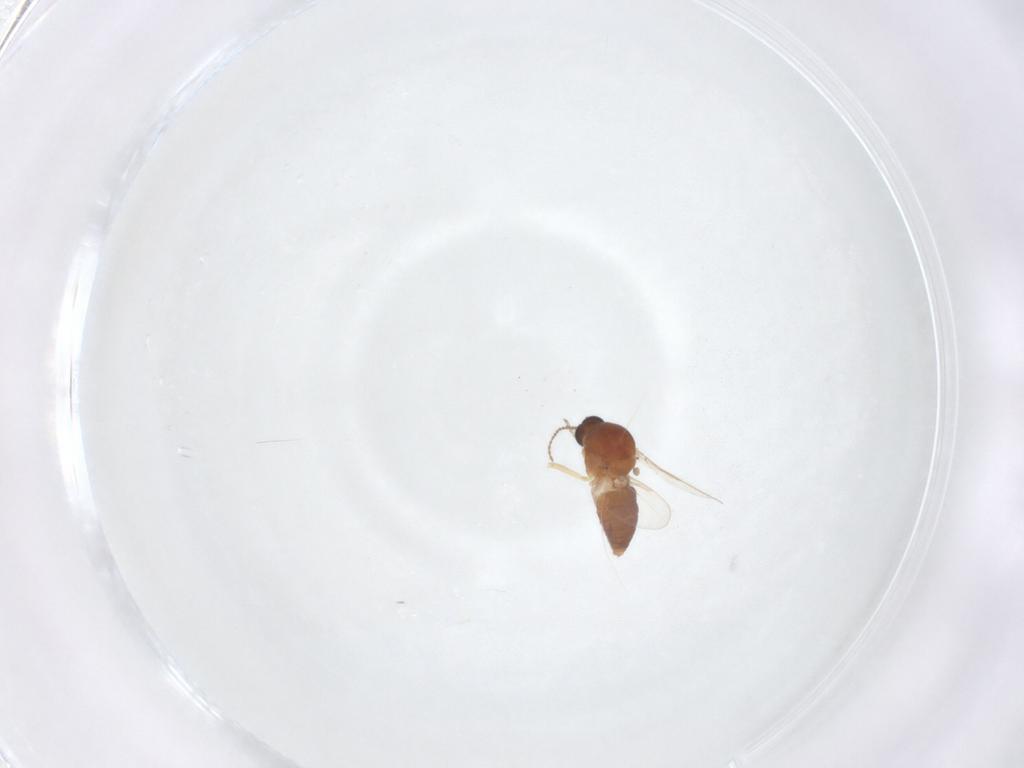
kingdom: Animalia
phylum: Arthropoda
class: Insecta
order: Diptera
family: Ceratopogonidae
